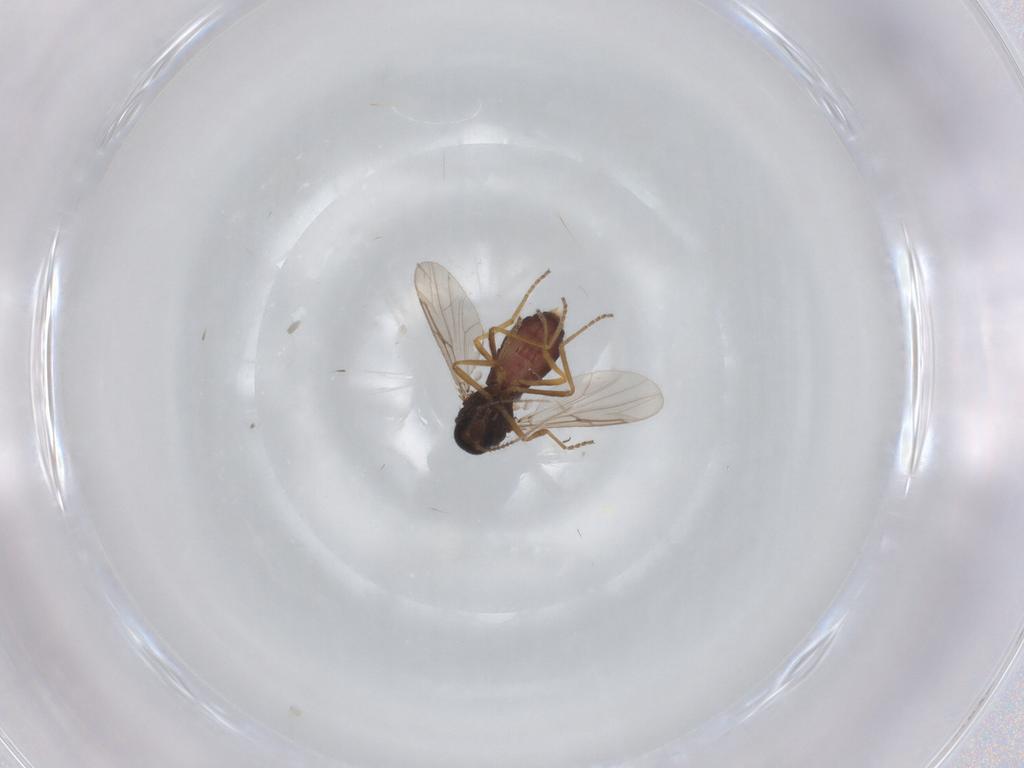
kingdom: Animalia
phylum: Arthropoda
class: Insecta
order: Diptera
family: Ceratopogonidae
